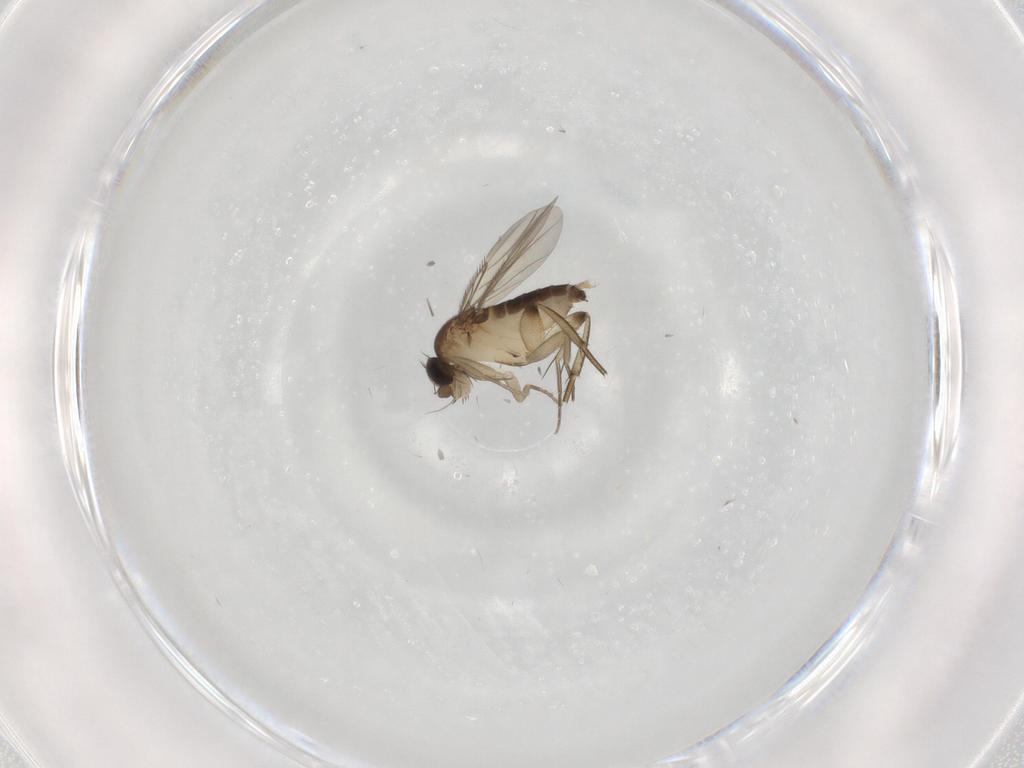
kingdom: Animalia
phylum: Arthropoda
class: Insecta
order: Diptera
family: Phoridae
